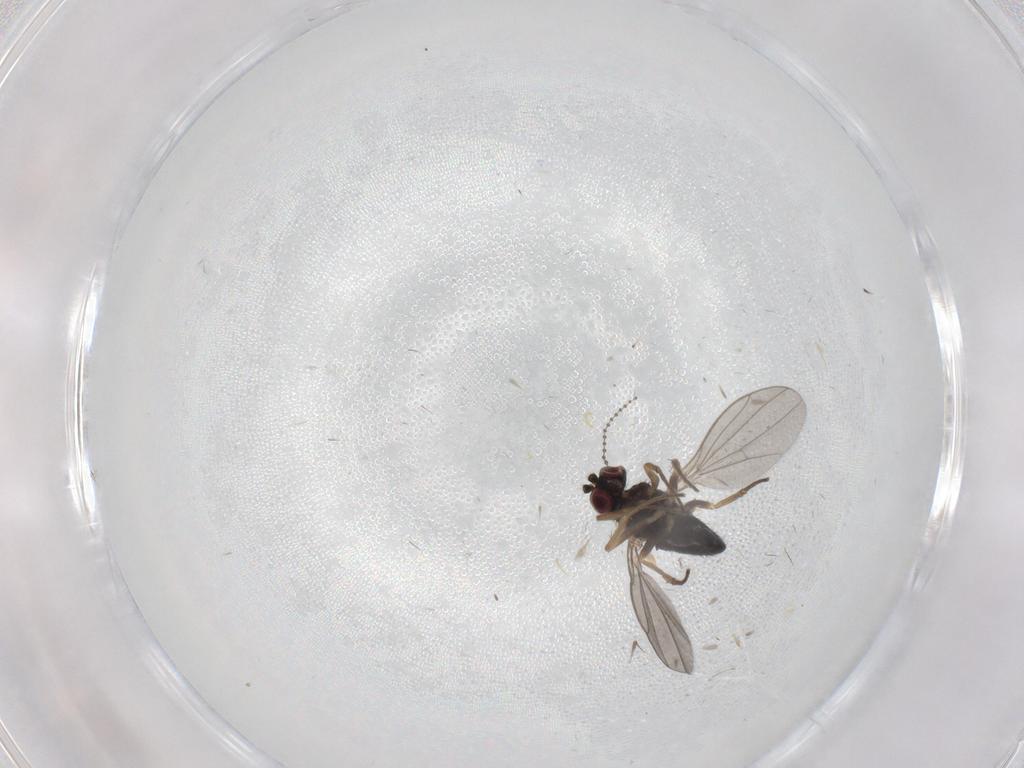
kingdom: Animalia
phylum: Arthropoda
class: Insecta
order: Diptera
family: Dolichopodidae
